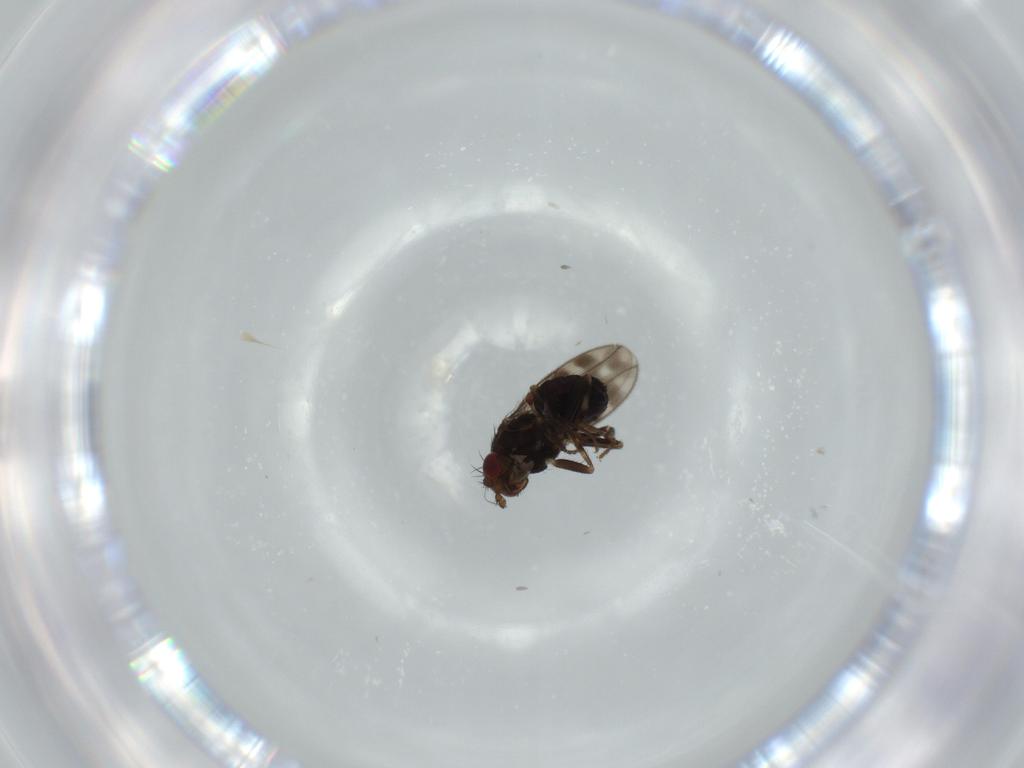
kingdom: Animalia
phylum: Arthropoda
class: Insecta
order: Diptera
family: Sphaeroceridae
